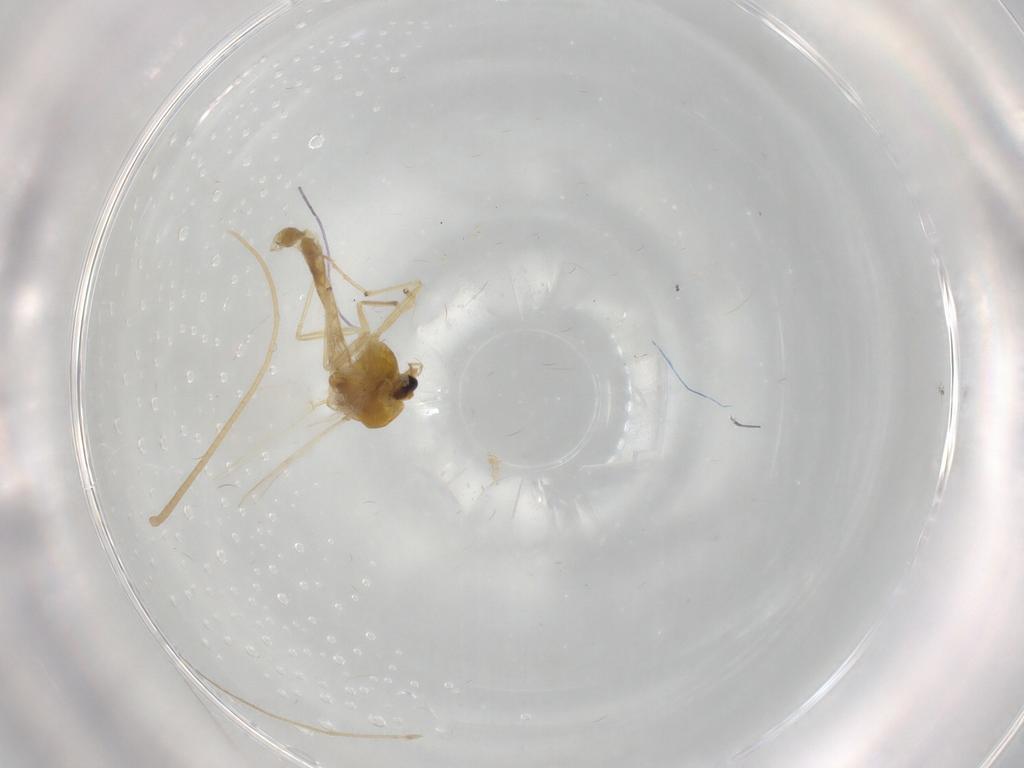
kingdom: Animalia
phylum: Arthropoda
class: Insecta
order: Diptera
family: Chironomidae
